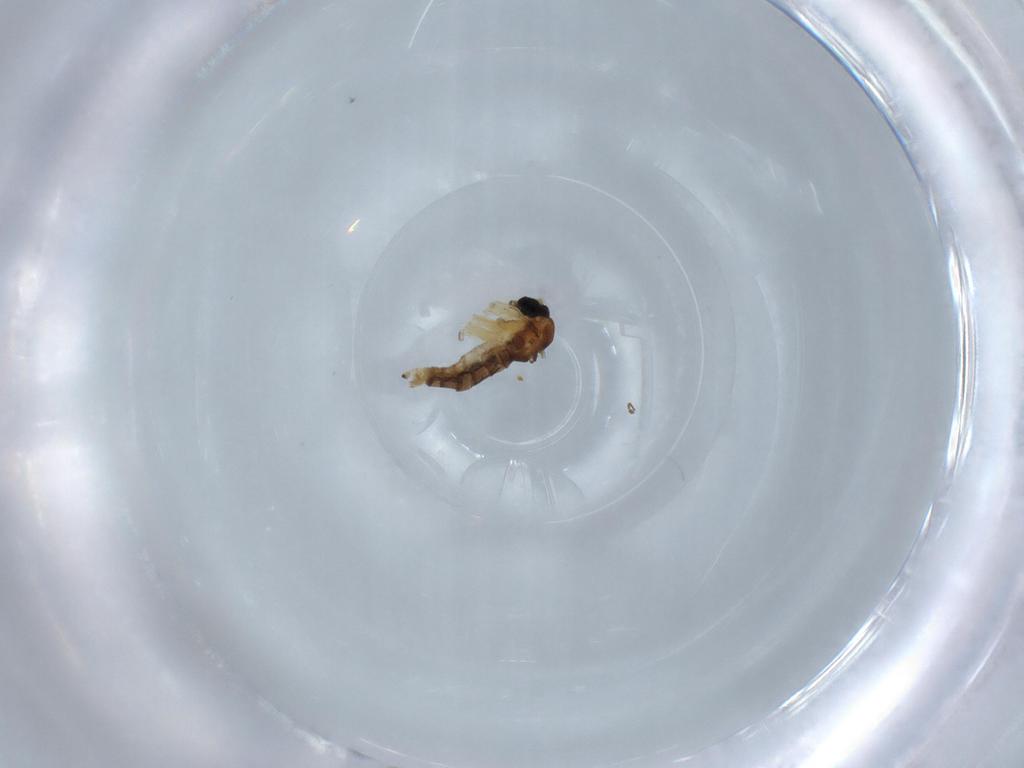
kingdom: Animalia
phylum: Arthropoda
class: Insecta
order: Diptera
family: Mythicomyiidae
